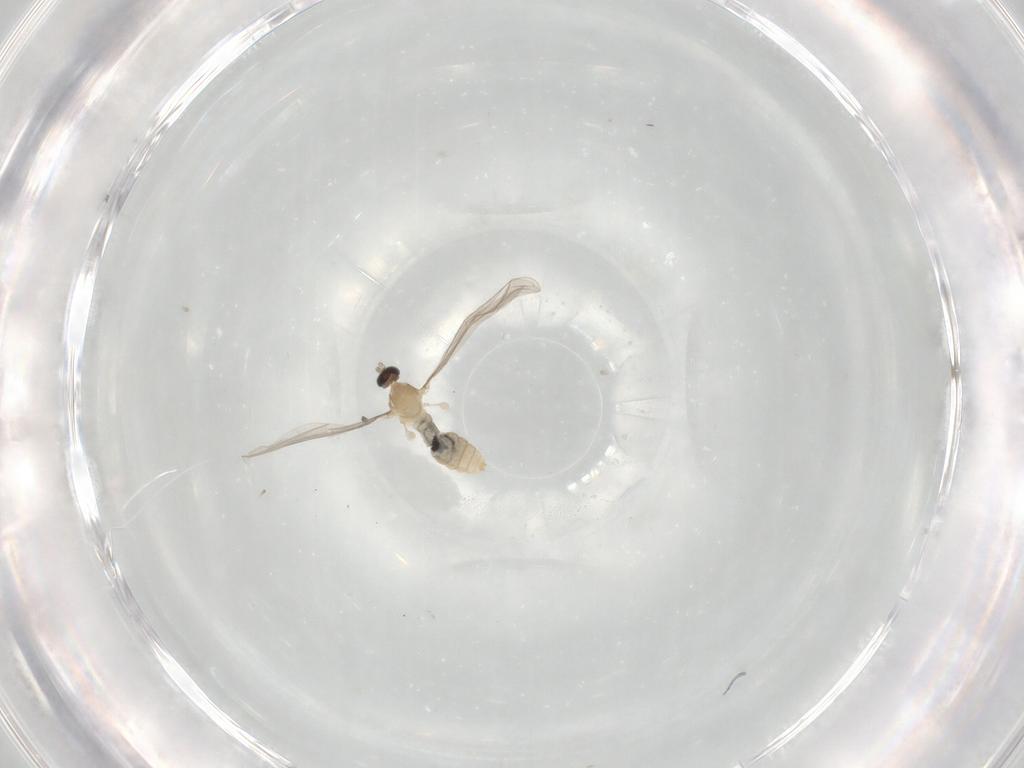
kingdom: Animalia
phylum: Arthropoda
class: Insecta
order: Diptera
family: Cecidomyiidae
